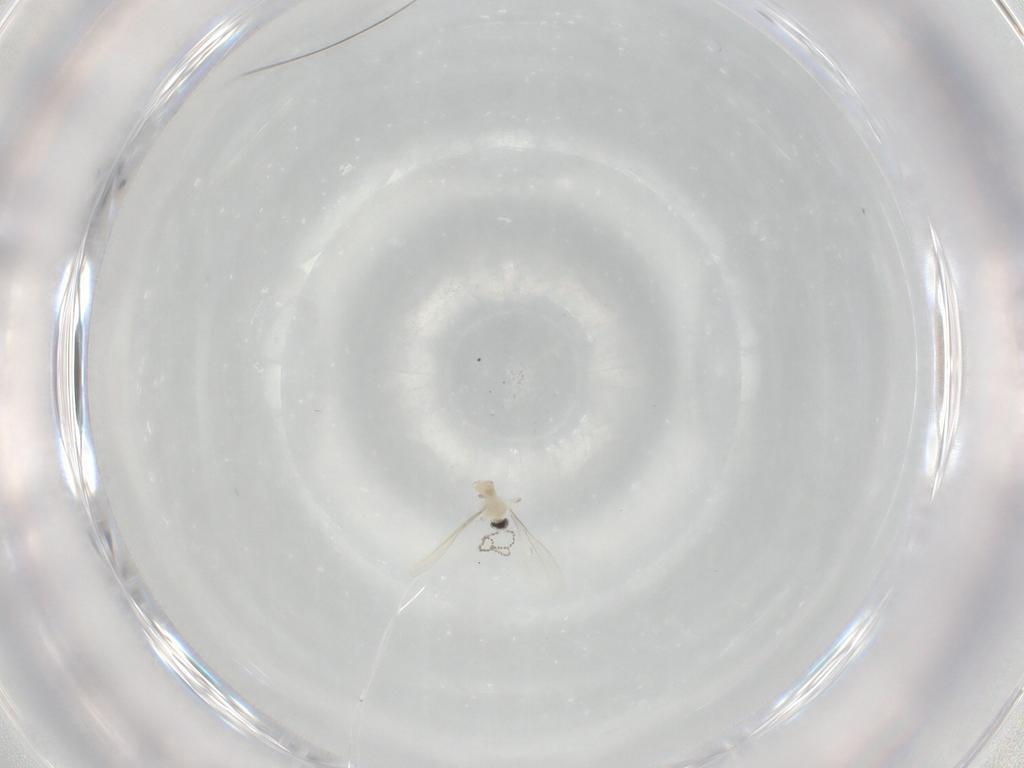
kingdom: Animalia
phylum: Arthropoda
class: Insecta
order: Diptera
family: Cecidomyiidae
